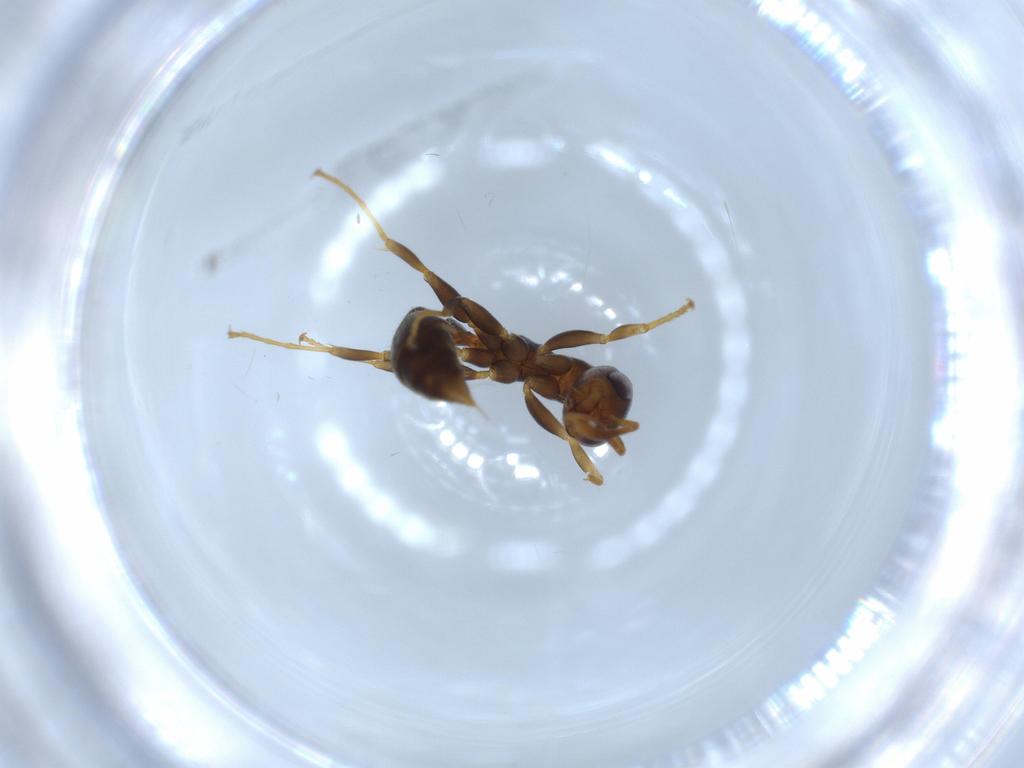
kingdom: Animalia
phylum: Arthropoda
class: Insecta
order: Hymenoptera
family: Formicidae
